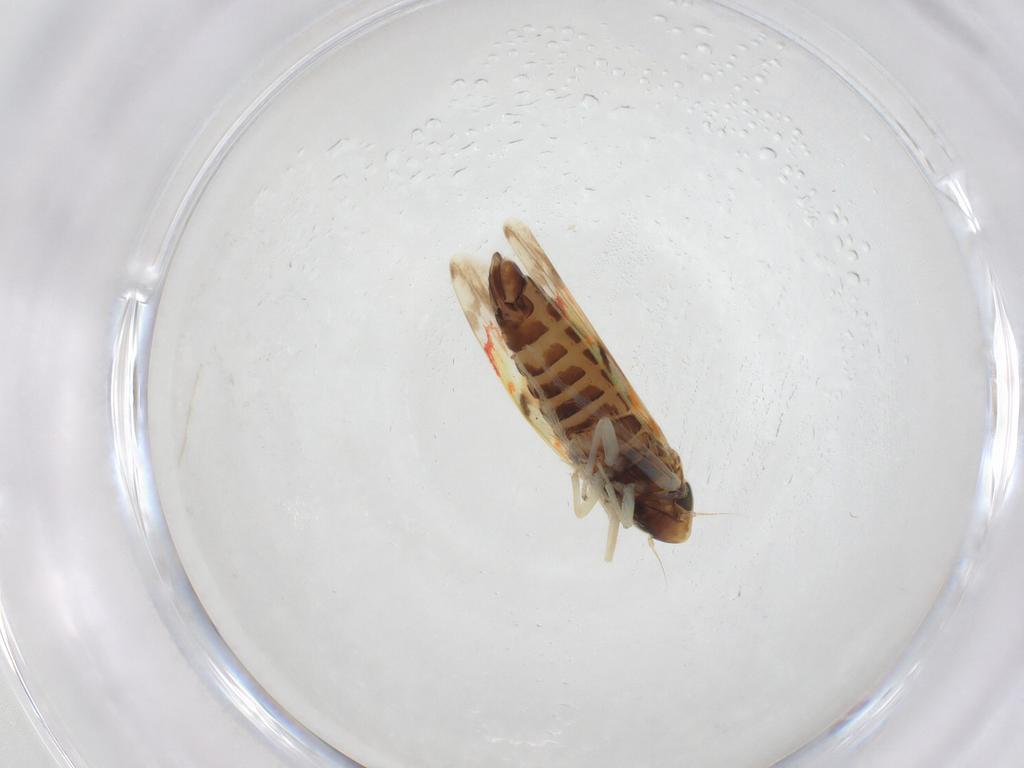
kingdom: Animalia
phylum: Arthropoda
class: Insecta
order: Hemiptera
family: Cicadellidae
